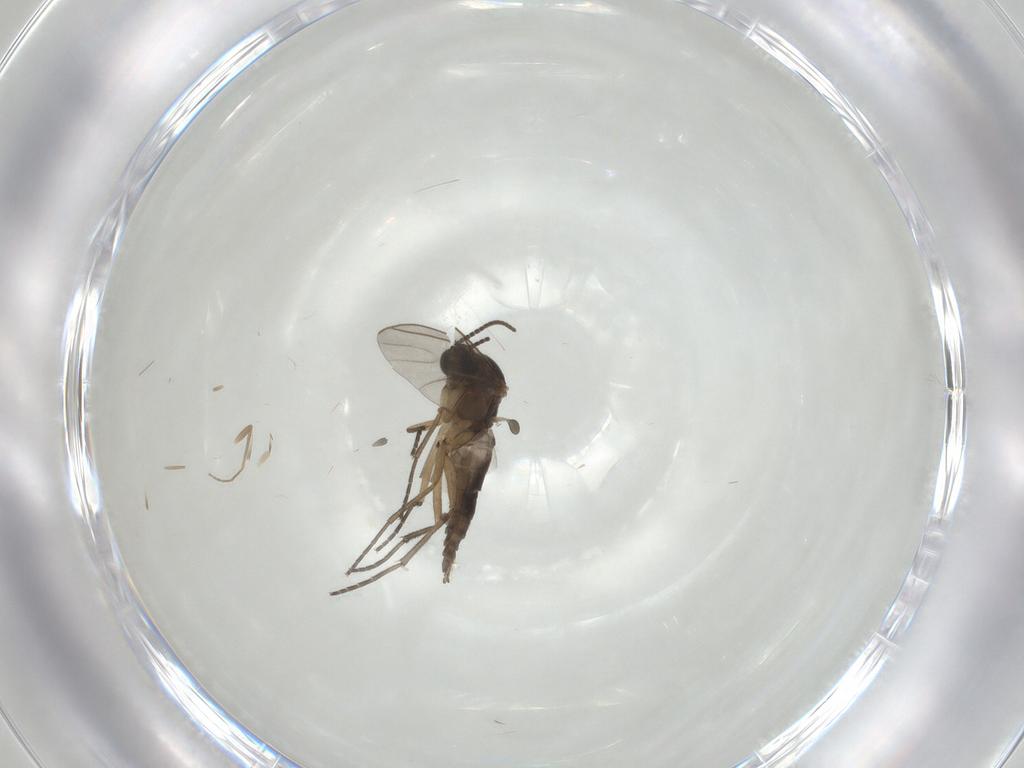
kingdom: Animalia
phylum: Arthropoda
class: Insecta
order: Diptera
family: Sciaridae
